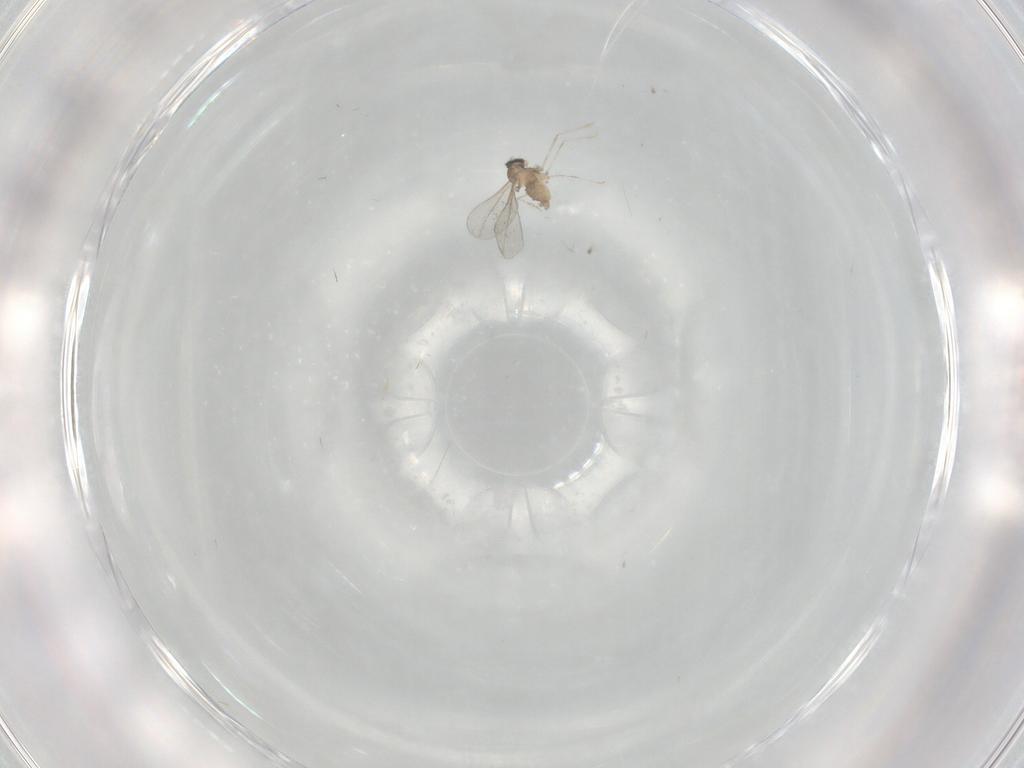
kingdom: Animalia
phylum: Arthropoda
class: Insecta
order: Diptera
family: Cecidomyiidae
